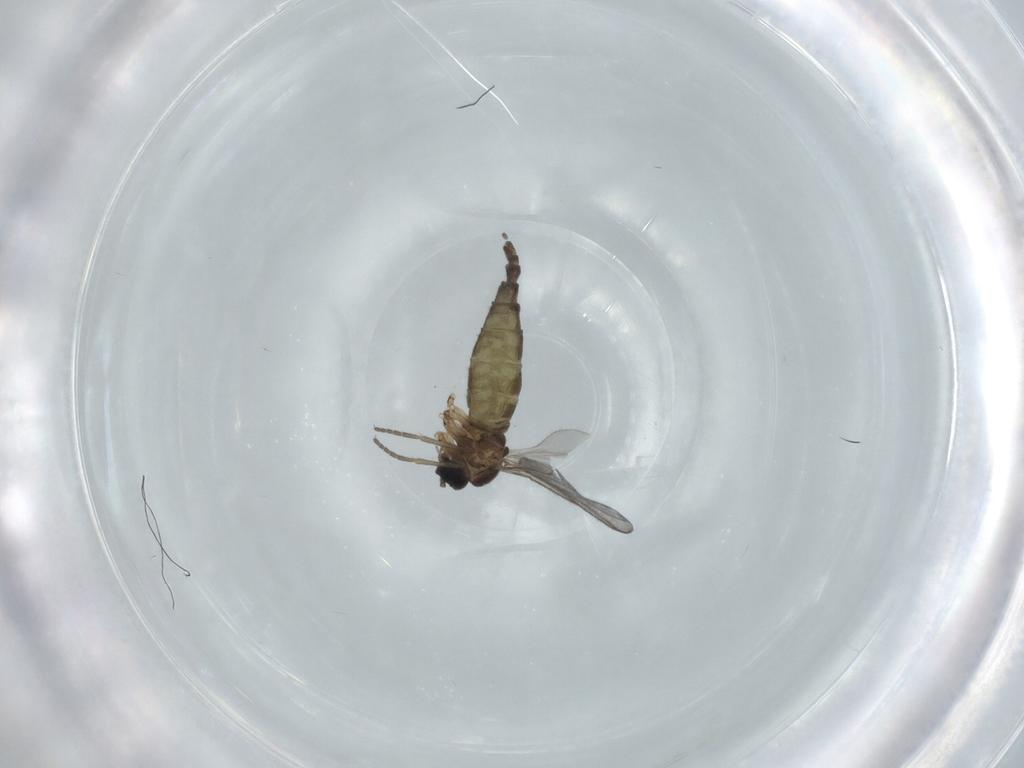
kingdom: Animalia
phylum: Arthropoda
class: Insecta
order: Diptera
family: Sciaridae
